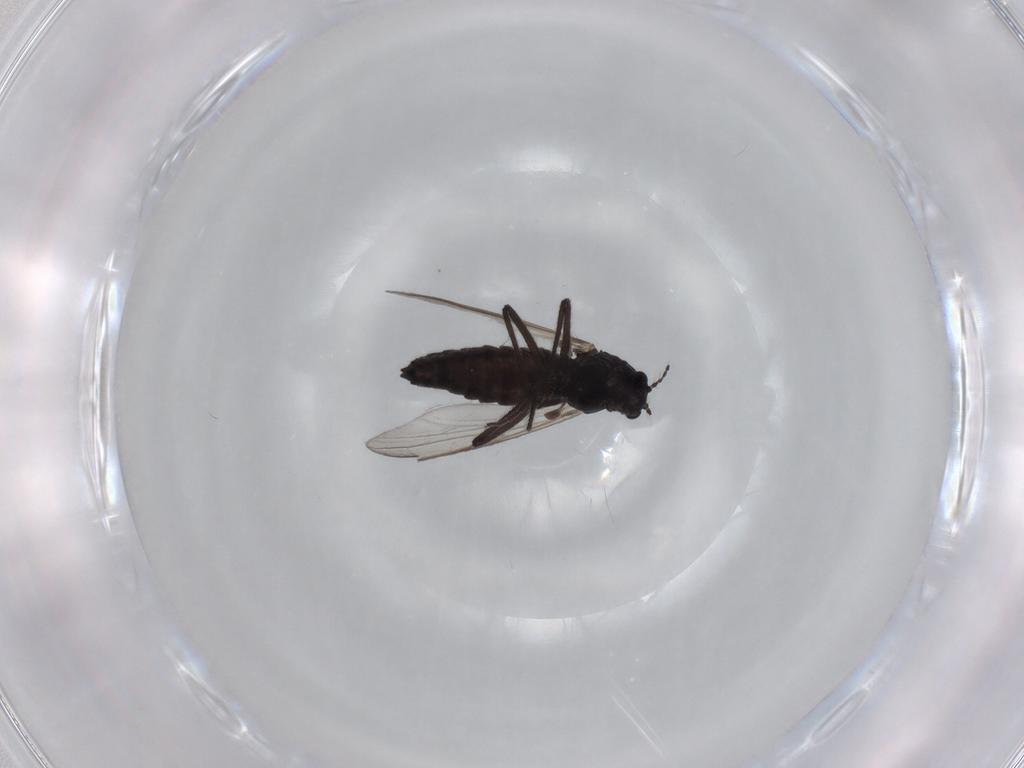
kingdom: Animalia
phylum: Arthropoda
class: Insecta
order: Diptera
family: Chironomidae
